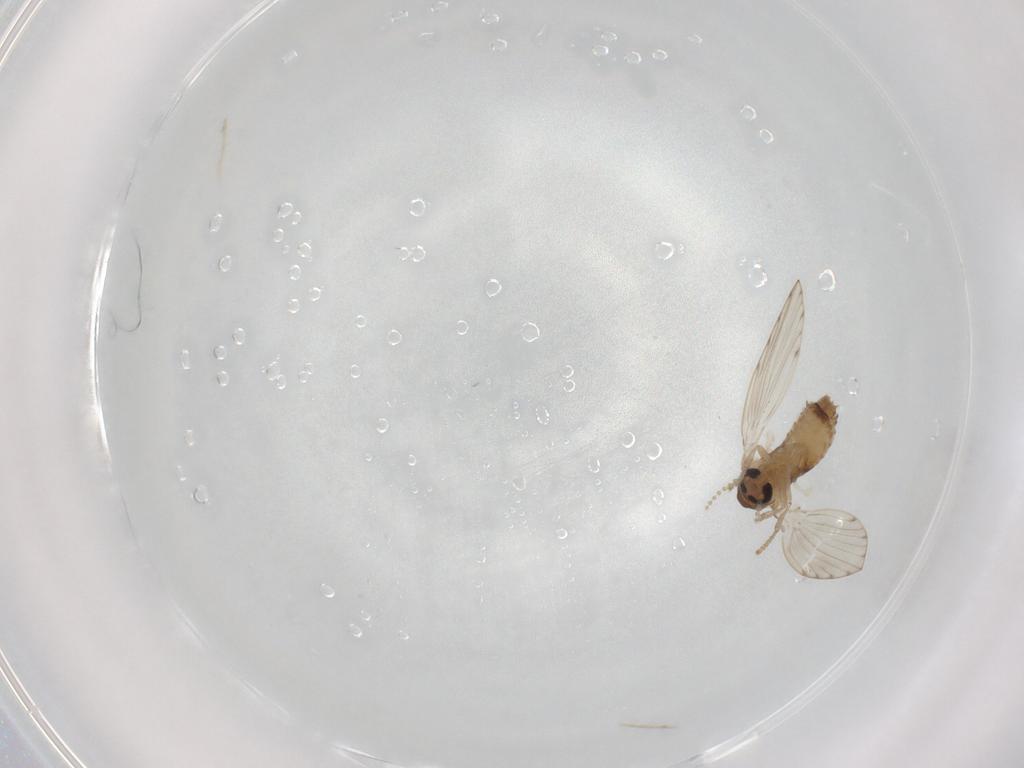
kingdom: Animalia
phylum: Arthropoda
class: Insecta
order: Diptera
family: Psychodidae
